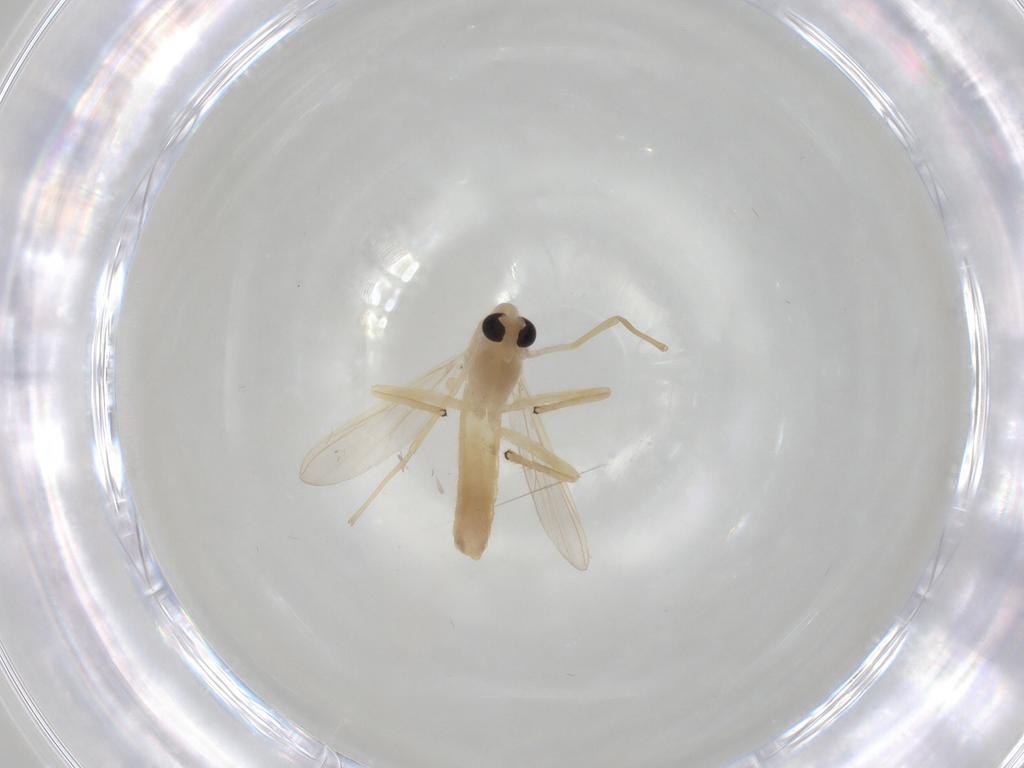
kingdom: Animalia
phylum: Arthropoda
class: Insecta
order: Diptera
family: Chironomidae
